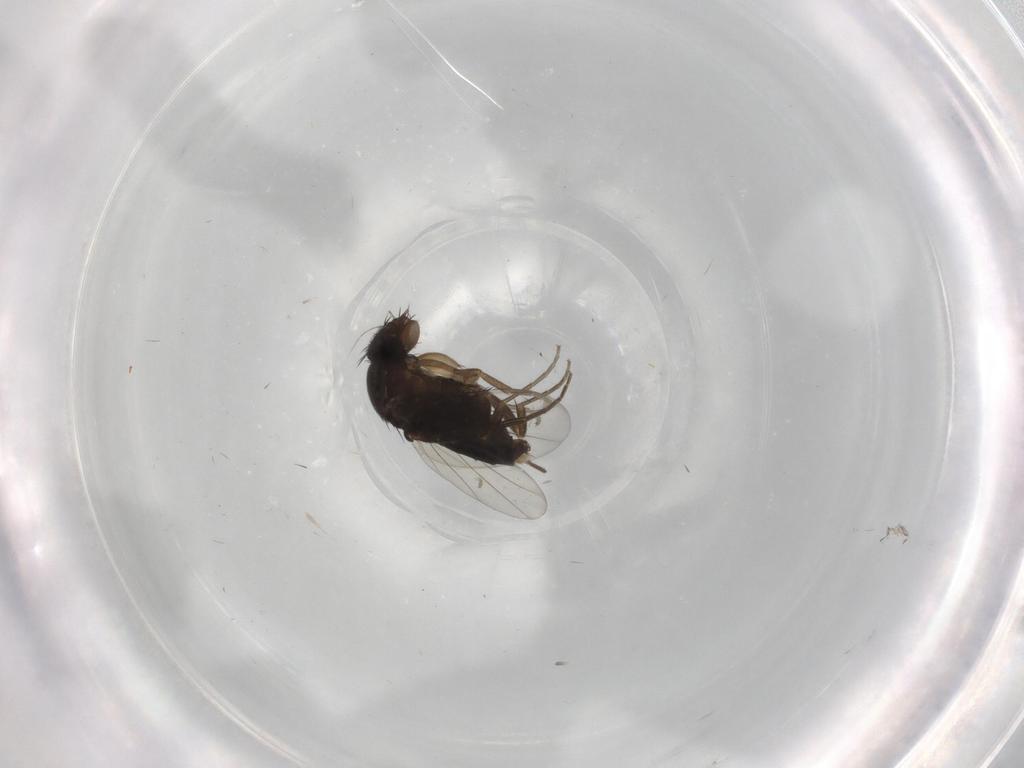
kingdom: Animalia
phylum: Arthropoda
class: Insecta
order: Diptera
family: Phoridae
